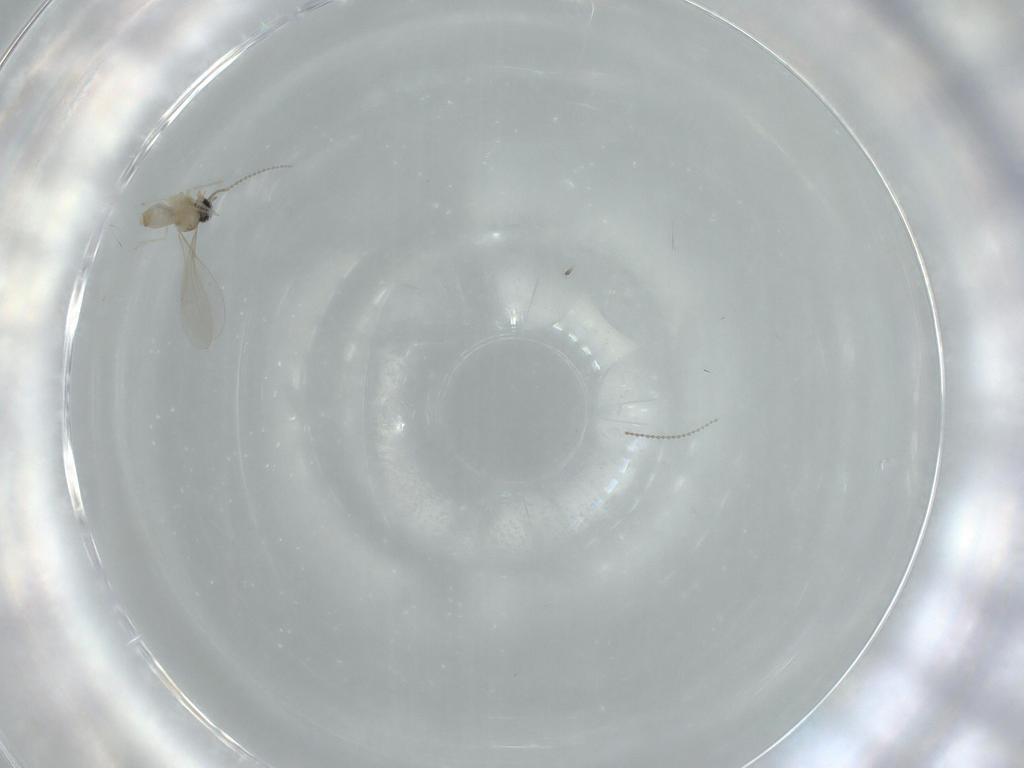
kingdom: Animalia
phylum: Arthropoda
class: Insecta
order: Diptera
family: Cecidomyiidae
